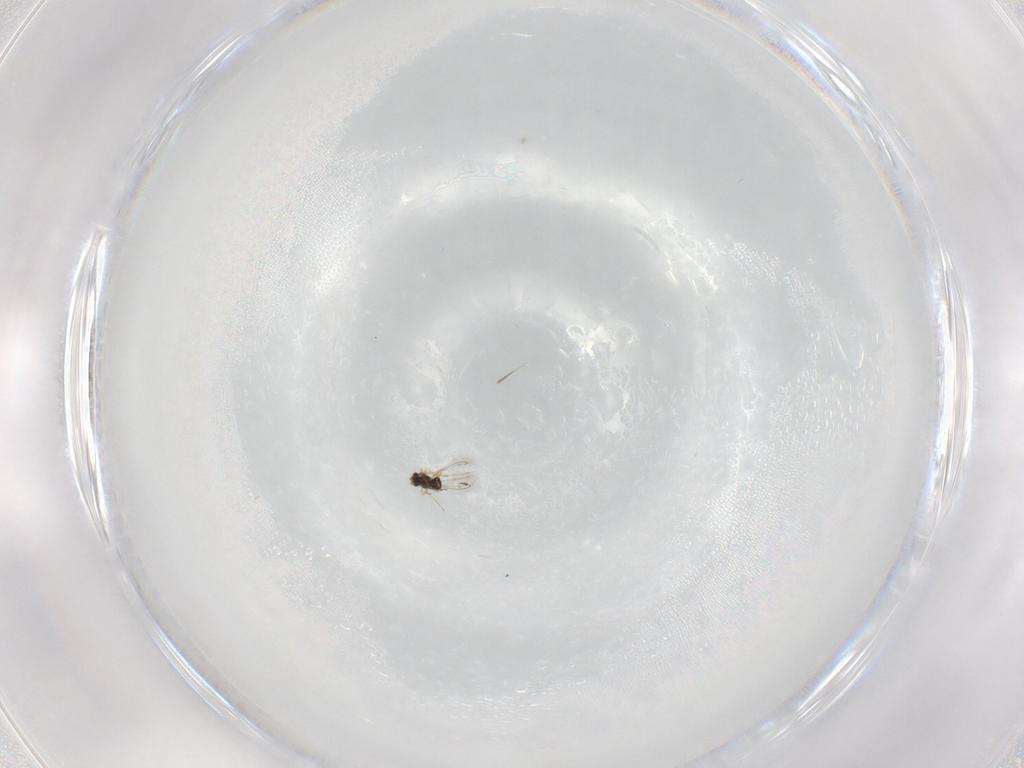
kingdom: Animalia
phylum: Arthropoda
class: Insecta
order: Hymenoptera
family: Mymaridae
